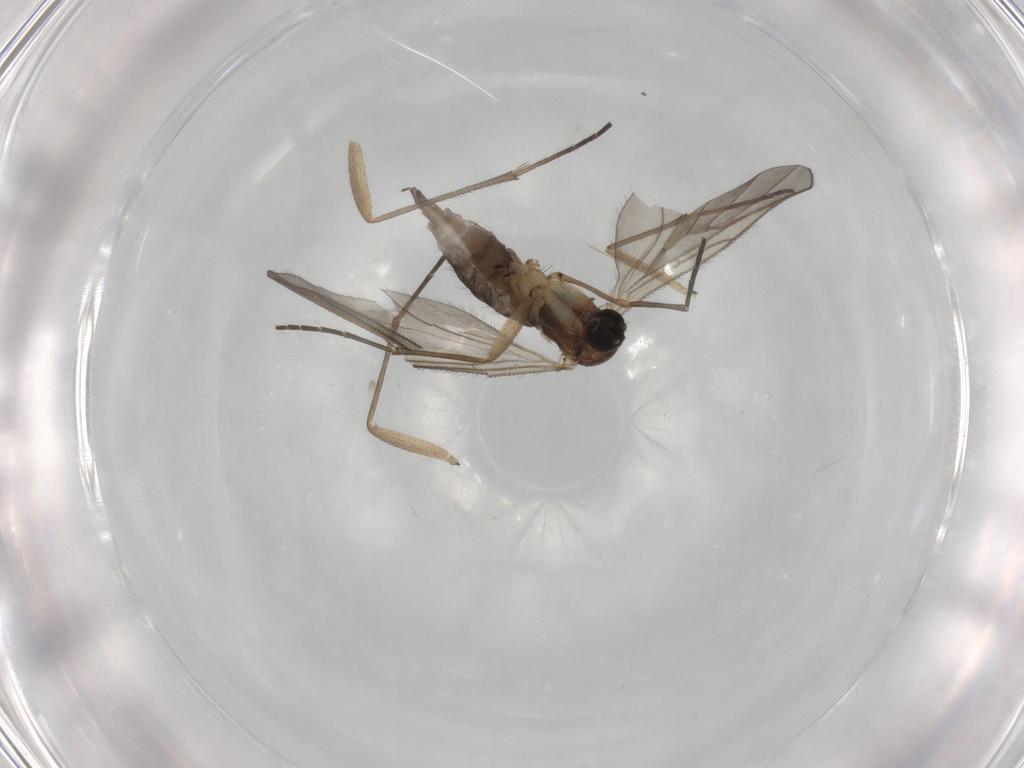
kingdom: Animalia
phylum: Arthropoda
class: Insecta
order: Diptera
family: Sciaridae
